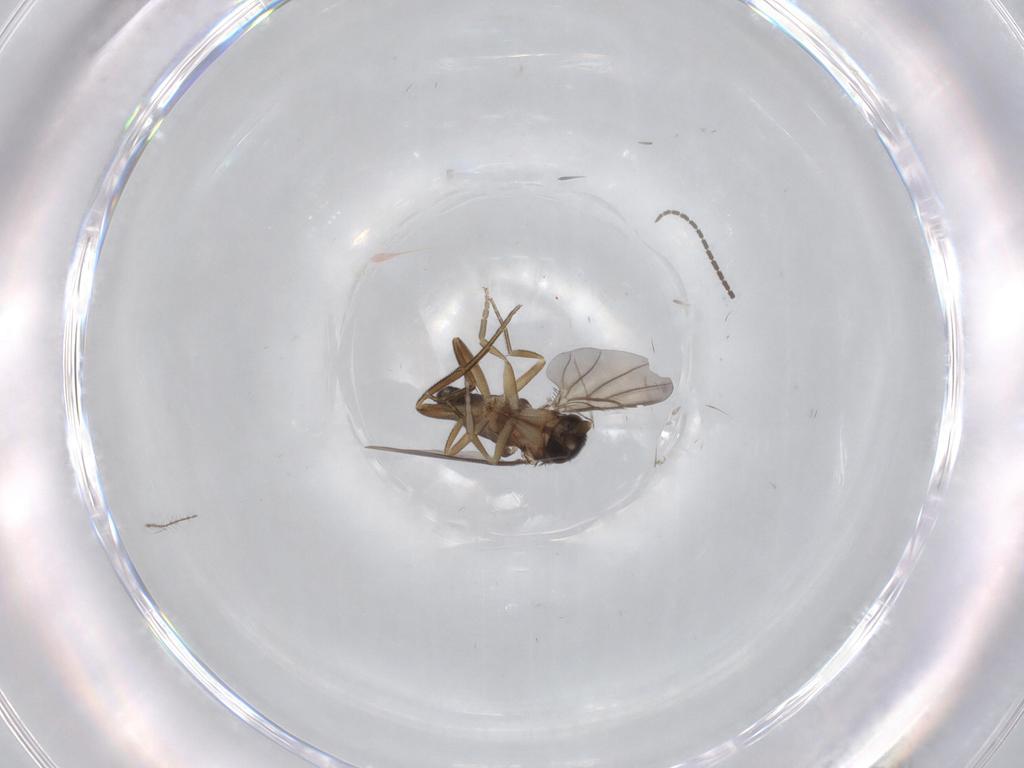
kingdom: Animalia
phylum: Arthropoda
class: Insecta
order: Diptera
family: Phoridae
